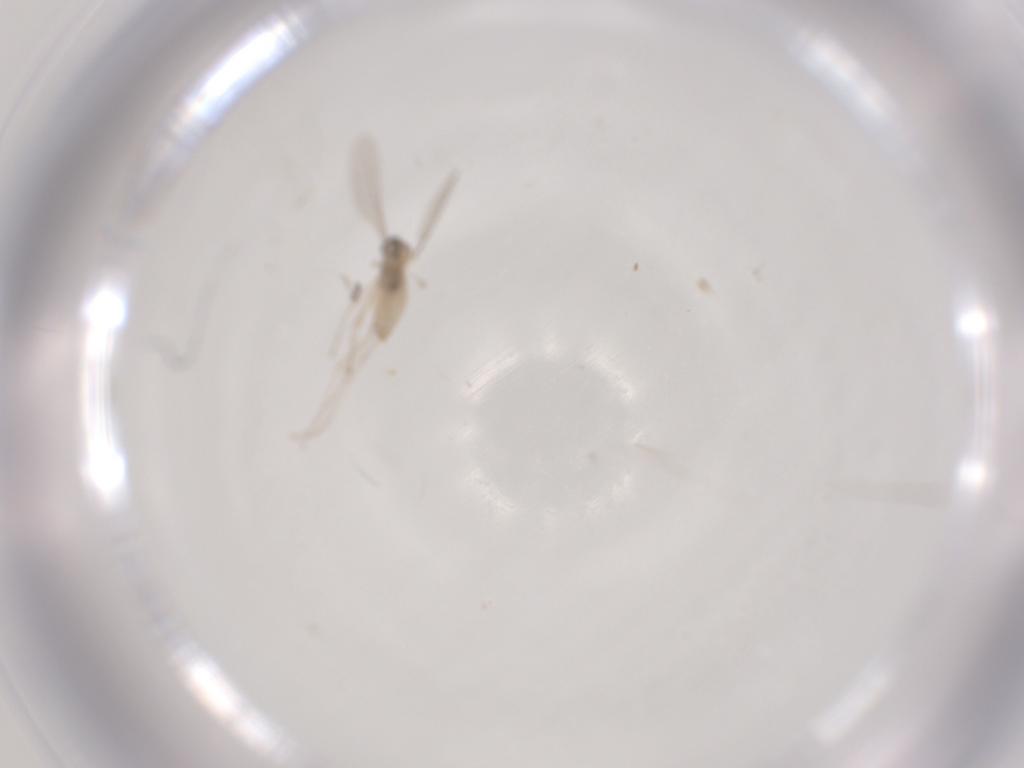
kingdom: Animalia
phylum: Arthropoda
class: Insecta
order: Diptera
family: Cecidomyiidae
